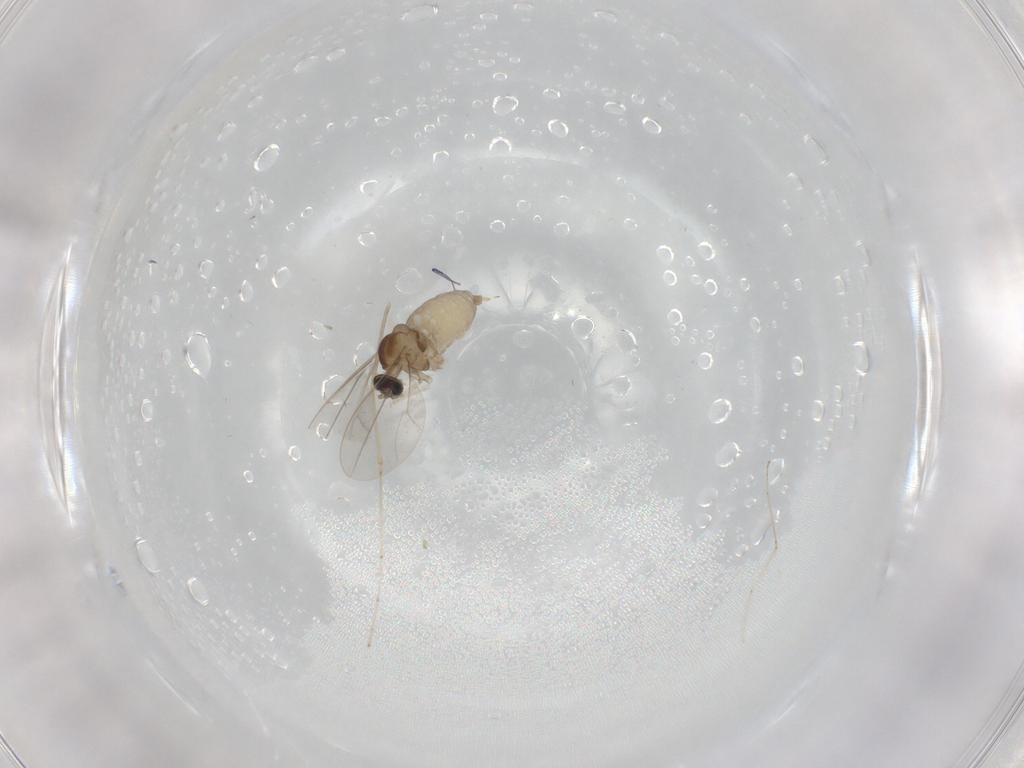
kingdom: Animalia
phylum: Arthropoda
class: Insecta
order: Diptera
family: Cecidomyiidae
